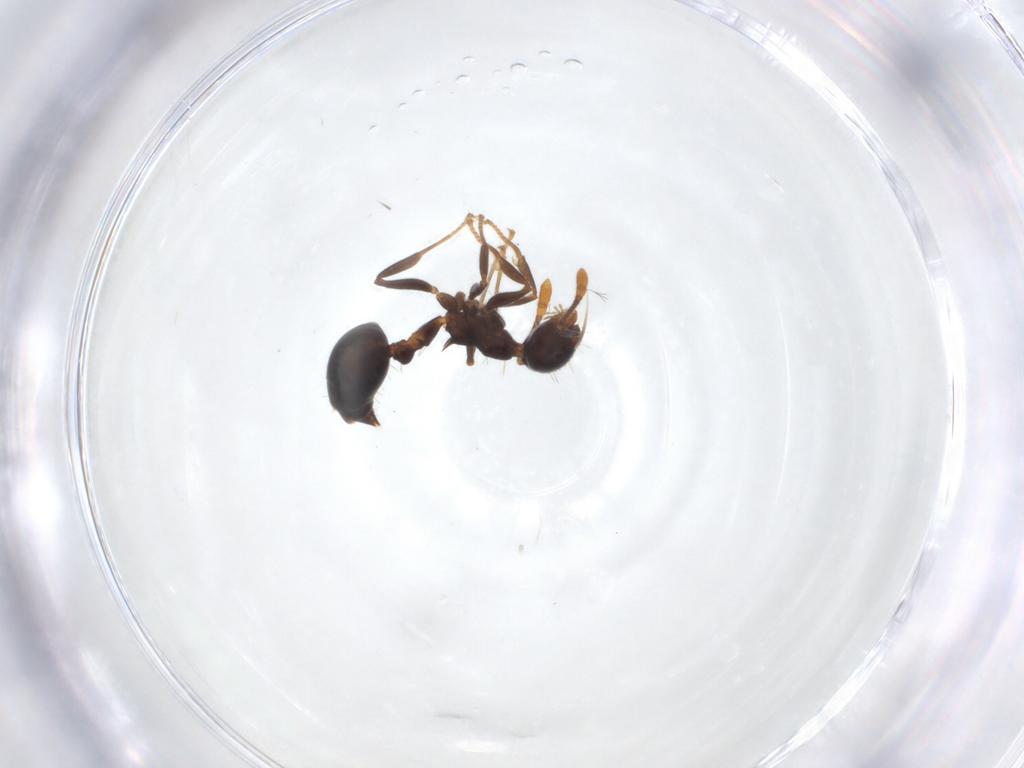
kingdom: Animalia
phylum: Arthropoda
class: Insecta
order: Hymenoptera
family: Formicidae
